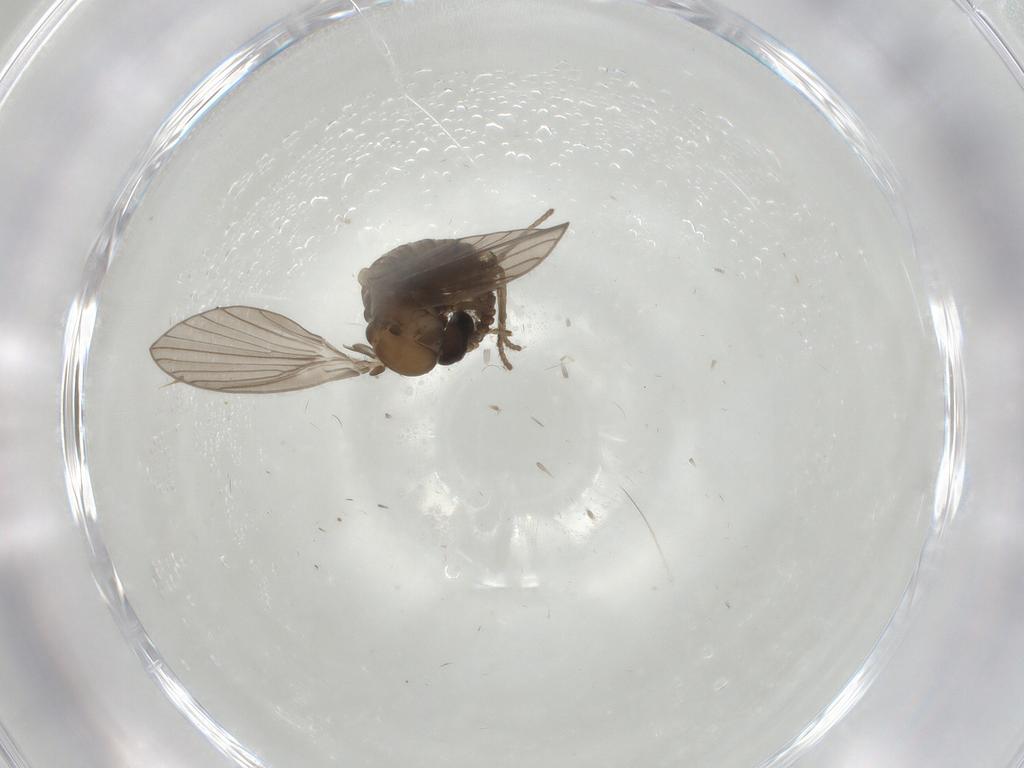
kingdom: Animalia
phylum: Arthropoda
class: Insecta
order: Diptera
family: Psychodidae
